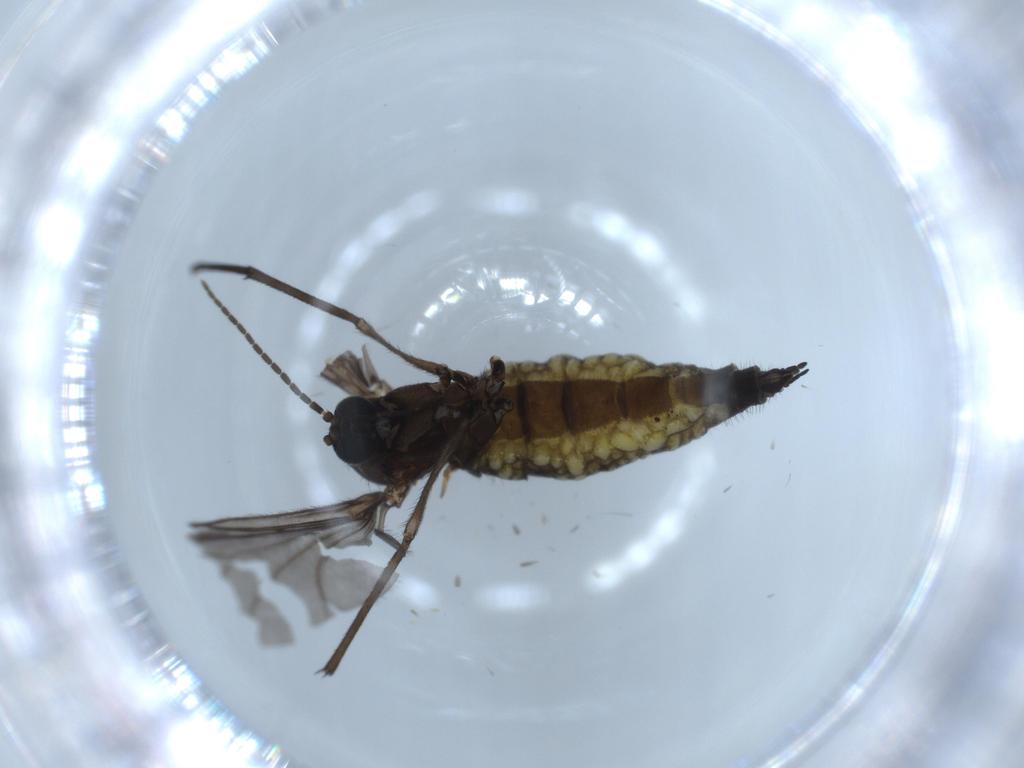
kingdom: Animalia
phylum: Arthropoda
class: Insecta
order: Diptera
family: Sciaridae
